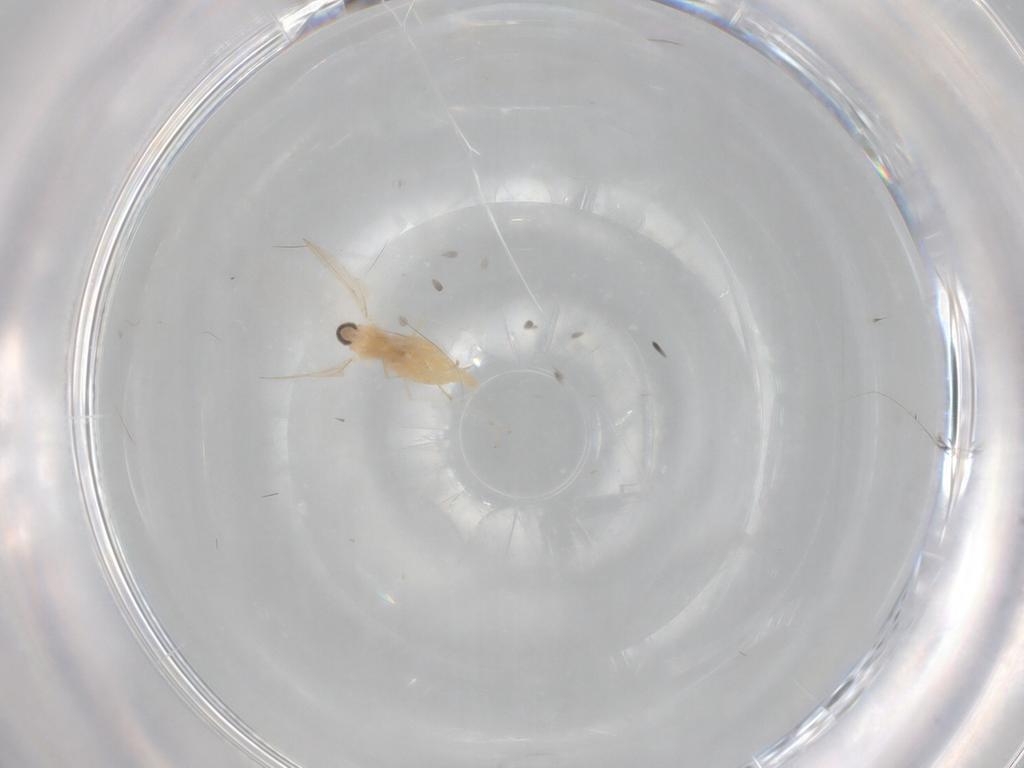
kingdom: Animalia
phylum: Arthropoda
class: Insecta
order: Diptera
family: Cecidomyiidae
